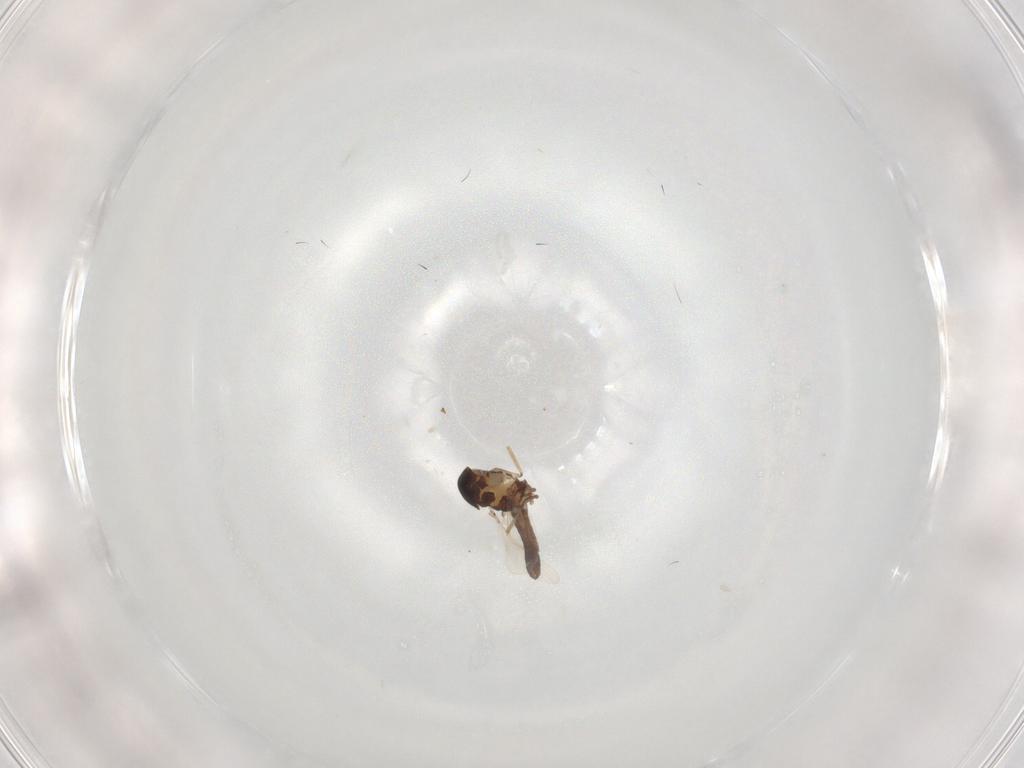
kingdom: Animalia
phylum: Arthropoda
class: Insecta
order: Diptera
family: Ceratopogonidae
